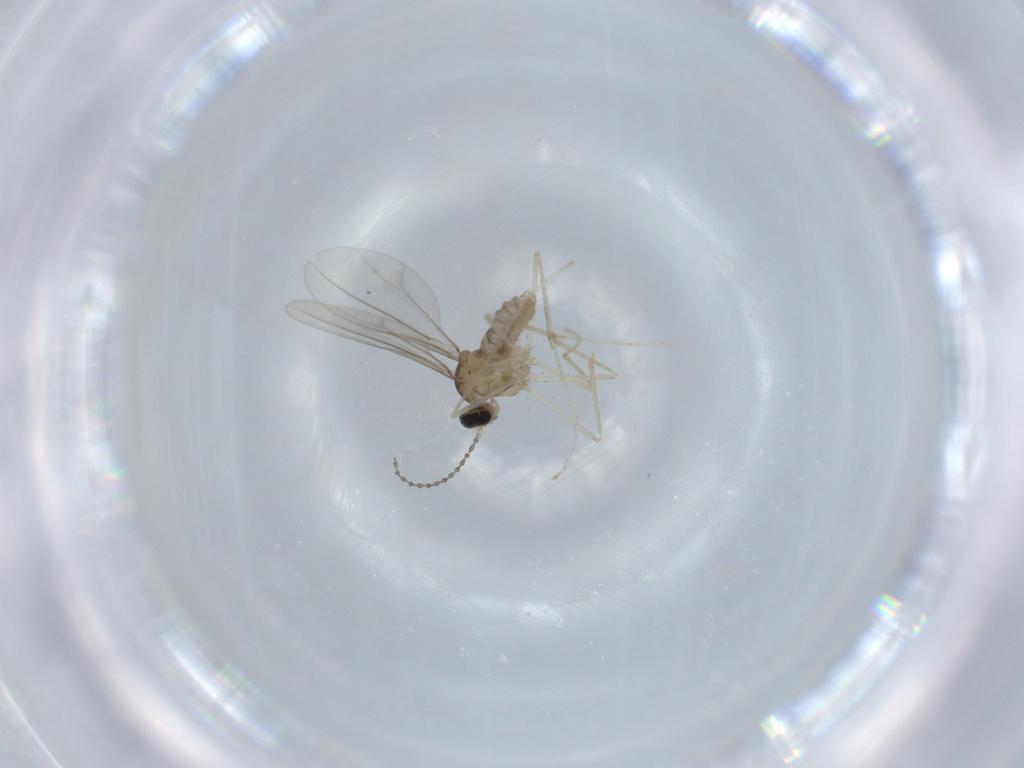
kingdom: Animalia
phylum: Arthropoda
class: Insecta
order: Diptera
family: Cecidomyiidae
